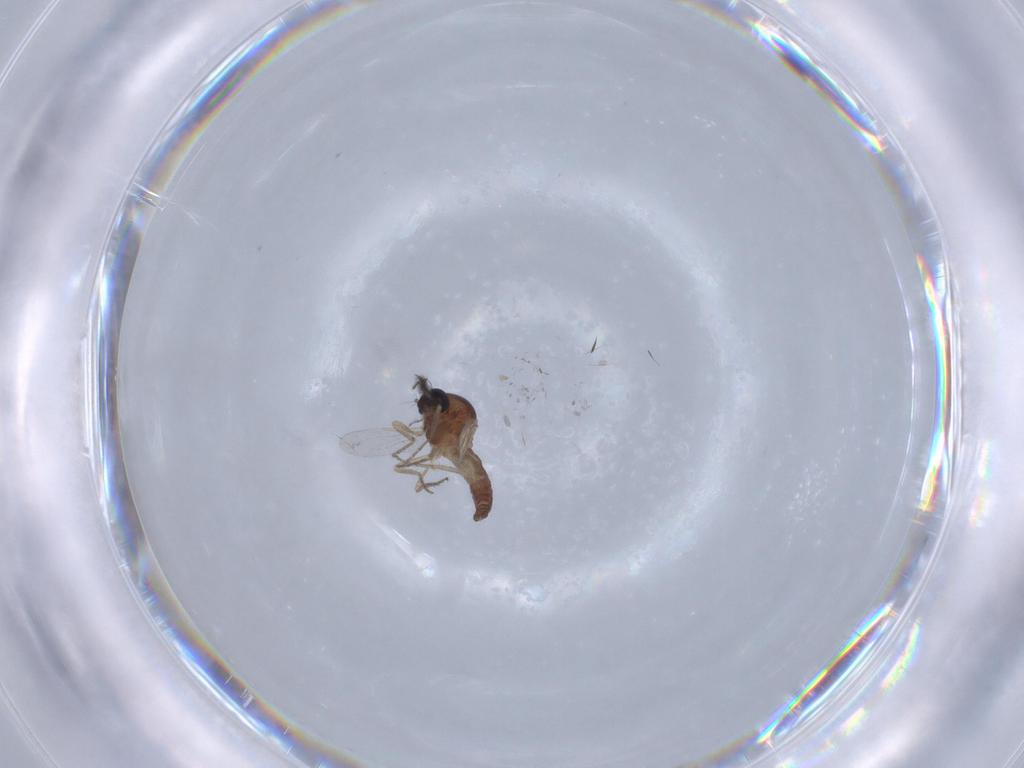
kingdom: Animalia
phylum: Arthropoda
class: Insecta
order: Diptera
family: Ceratopogonidae
